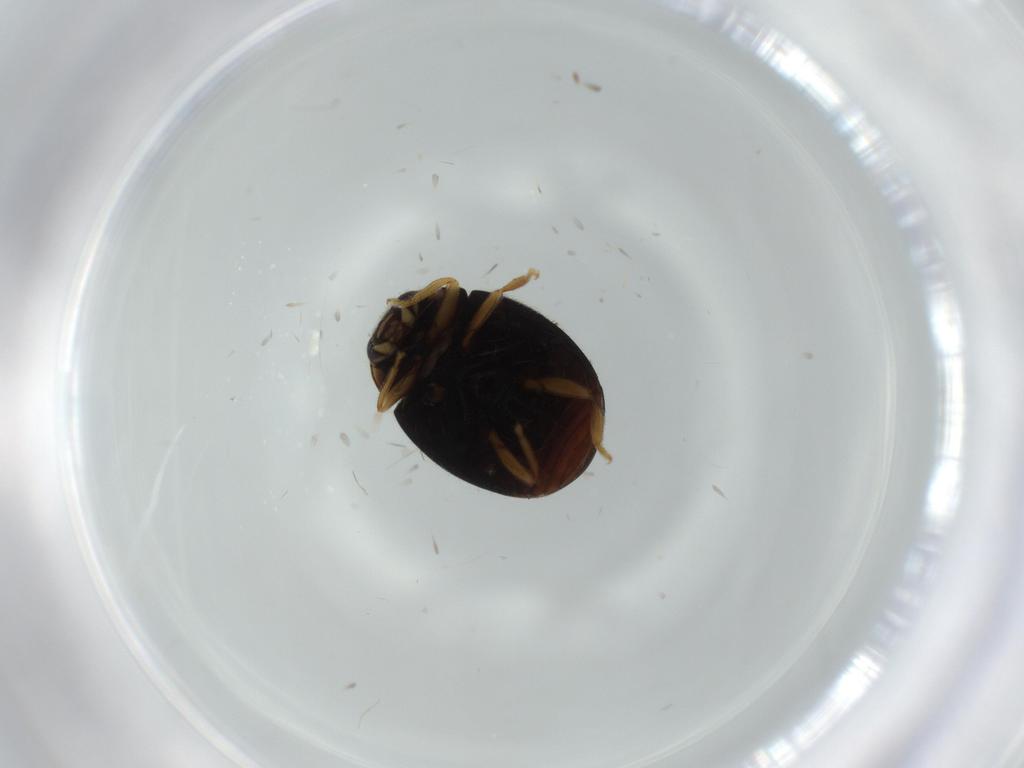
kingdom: Animalia
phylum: Arthropoda
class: Insecta
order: Coleoptera
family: Coccinellidae
